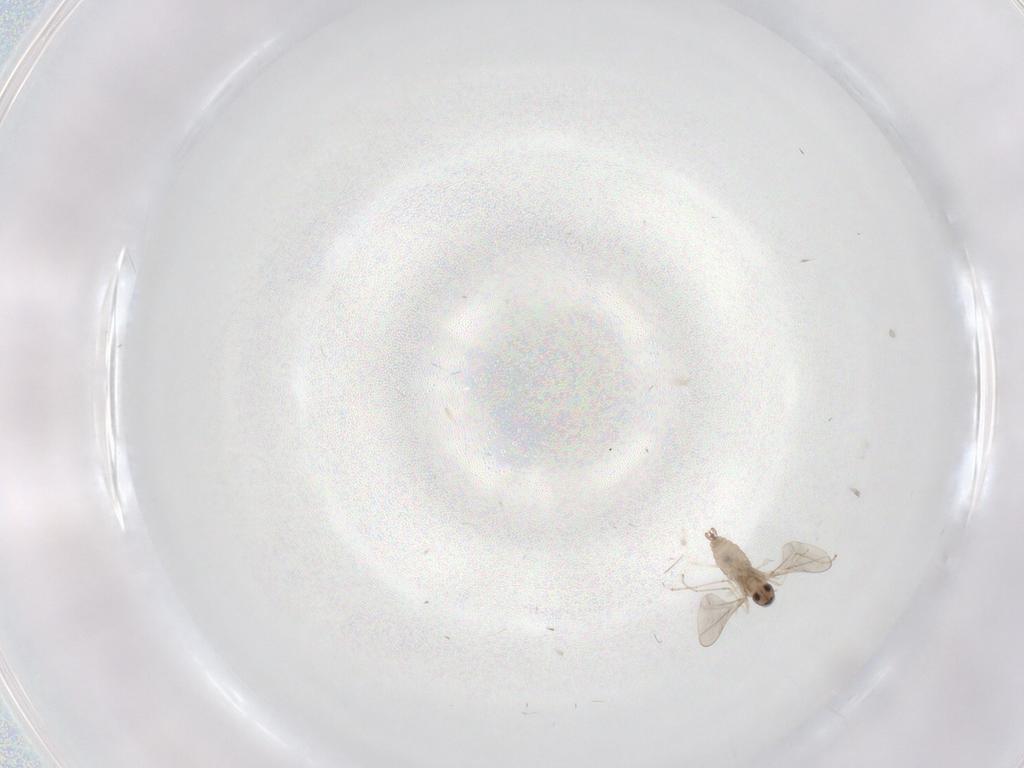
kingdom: Animalia
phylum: Arthropoda
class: Insecta
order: Diptera
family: Cecidomyiidae
